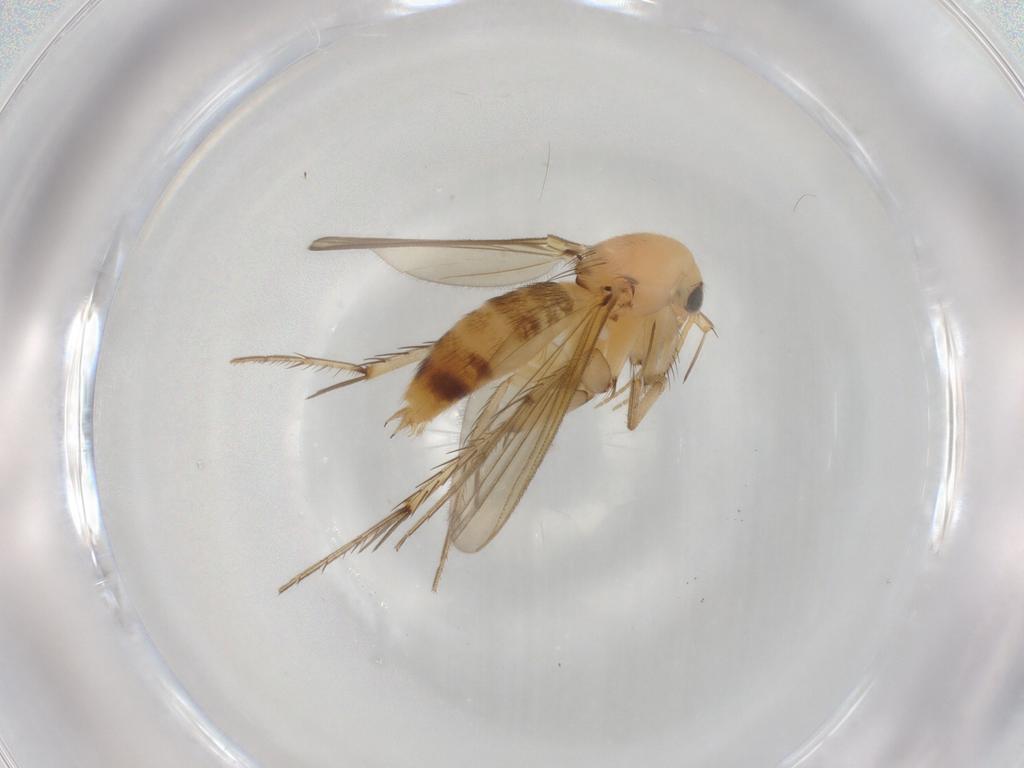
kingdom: Animalia
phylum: Arthropoda
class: Insecta
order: Diptera
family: Mycetophilidae
